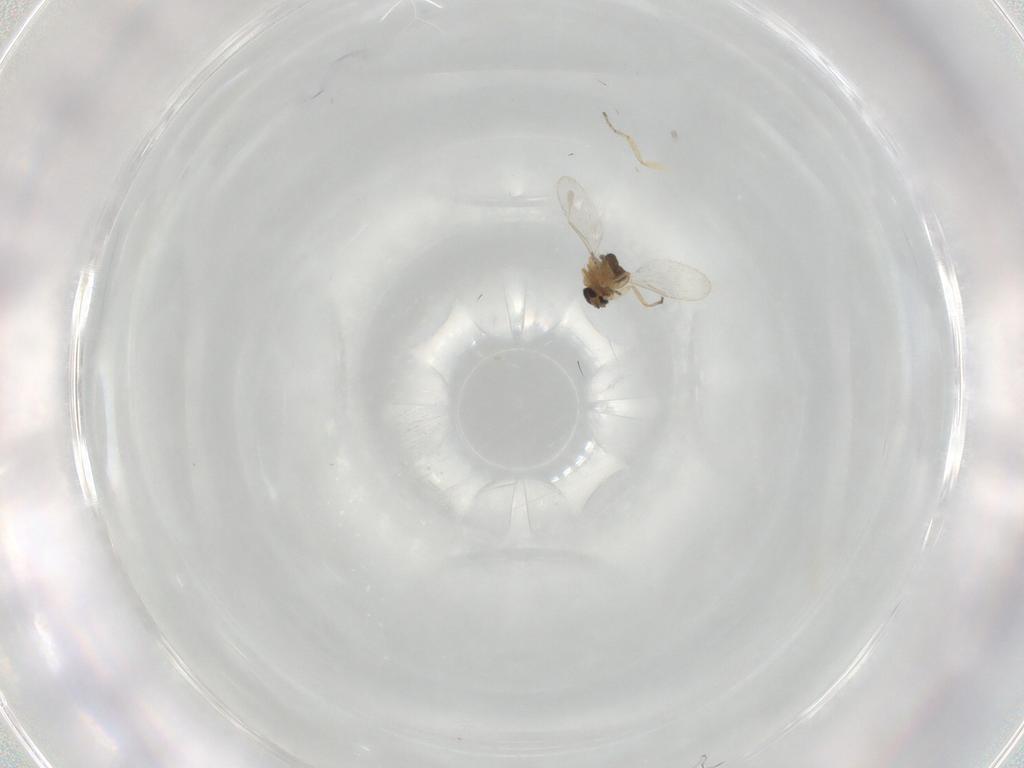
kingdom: Animalia
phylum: Arthropoda
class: Insecta
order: Diptera
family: Ceratopogonidae
